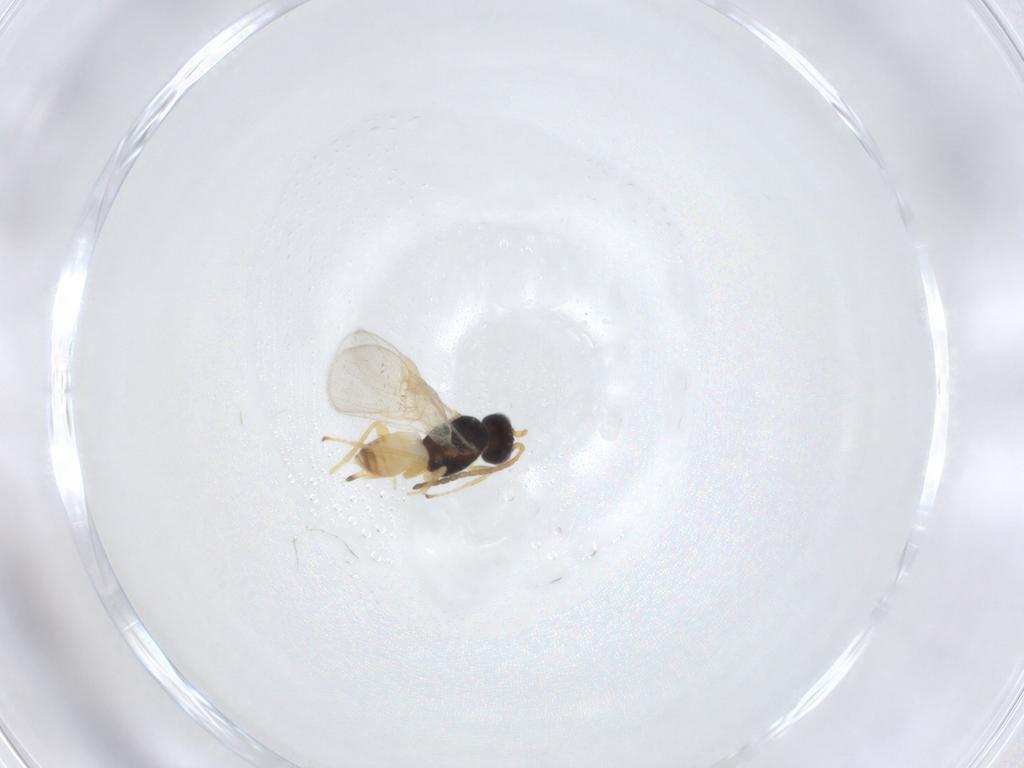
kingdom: Animalia
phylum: Arthropoda
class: Insecta
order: Hymenoptera
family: Braconidae
